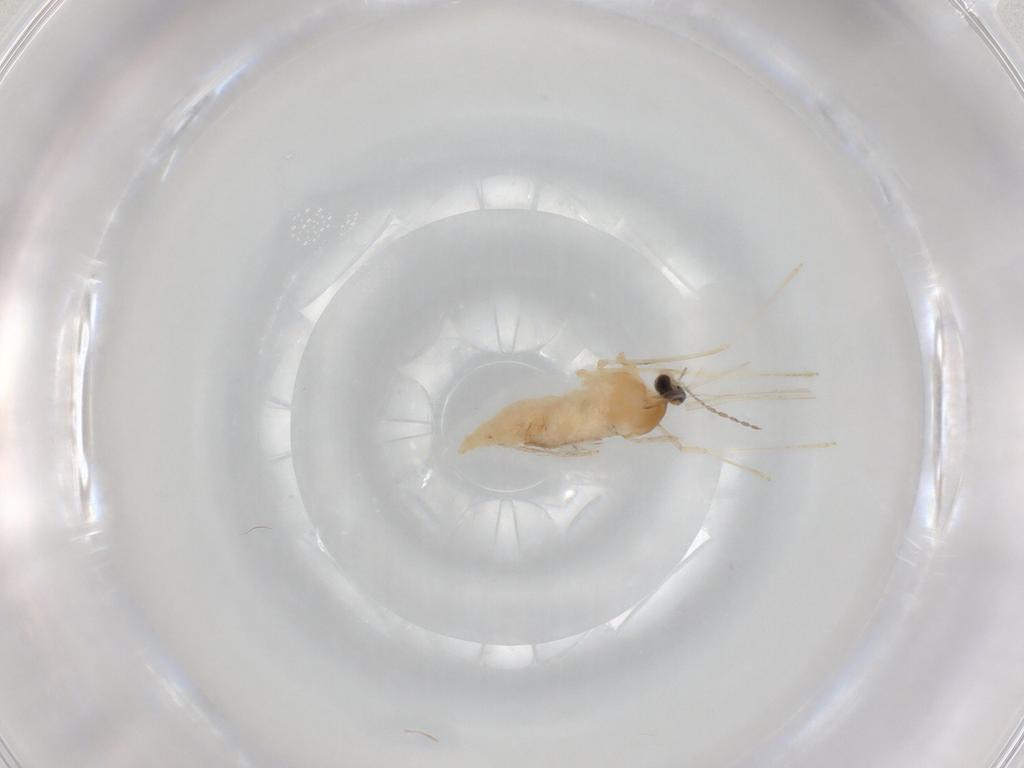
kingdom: Animalia
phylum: Arthropoda
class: Insecta
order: Diptera
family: Cecidomyiidae
